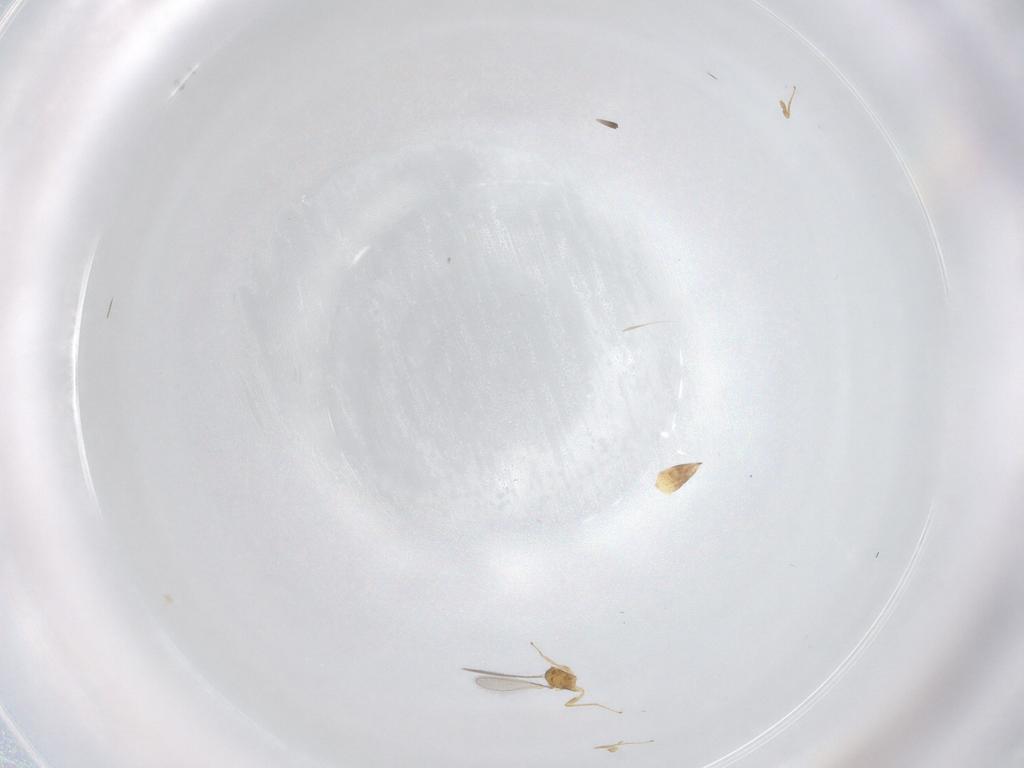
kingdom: Animalia
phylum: Arthropoda
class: Insecta
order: Hymenoptera
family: Mymaridae
